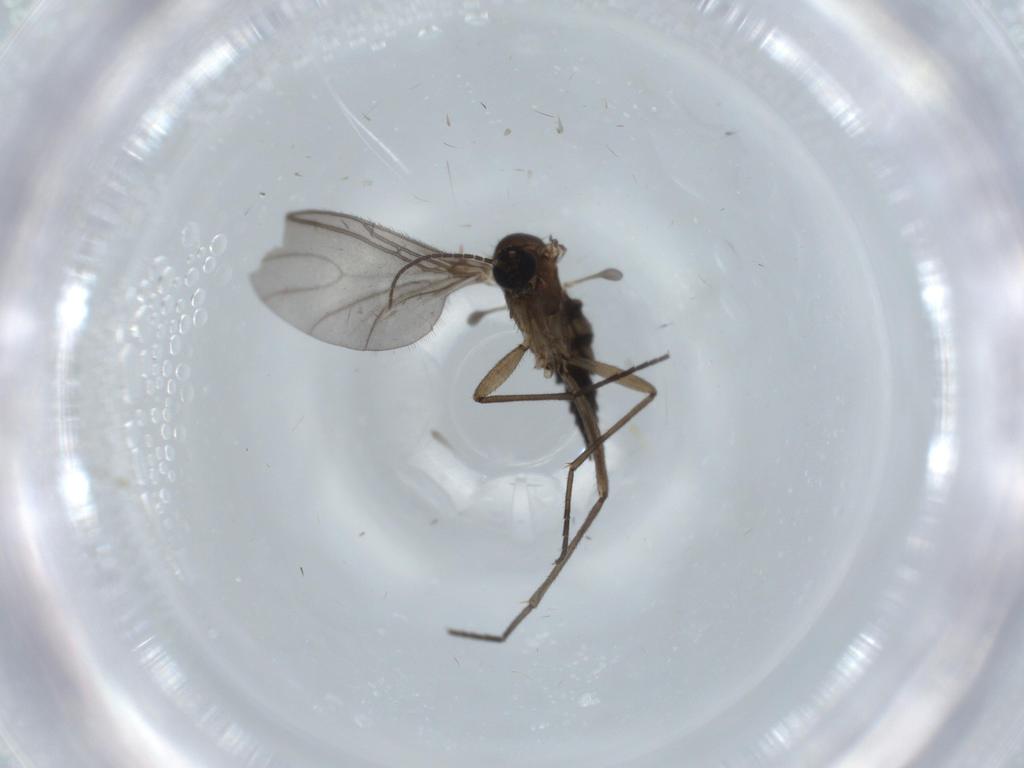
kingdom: Animalia
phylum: Arthropoda
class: Insecta
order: Diptera
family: Sciaridae
